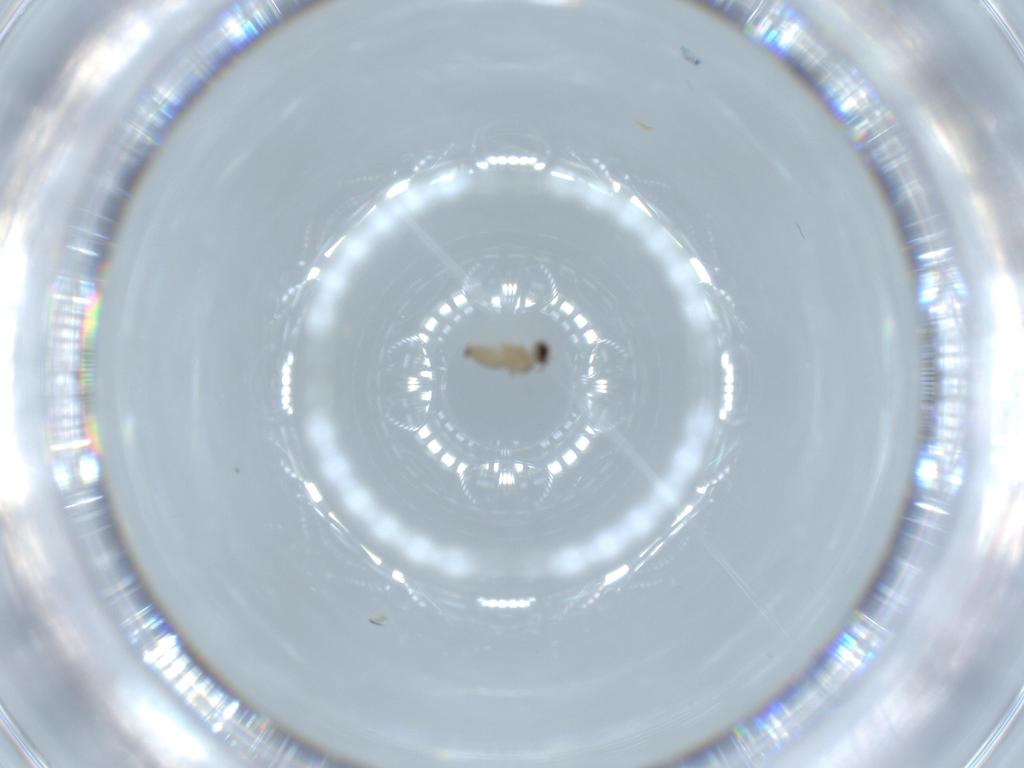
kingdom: Animalia
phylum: Arthropoda
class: Insecta
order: Diptera
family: Cecidomyiidae
